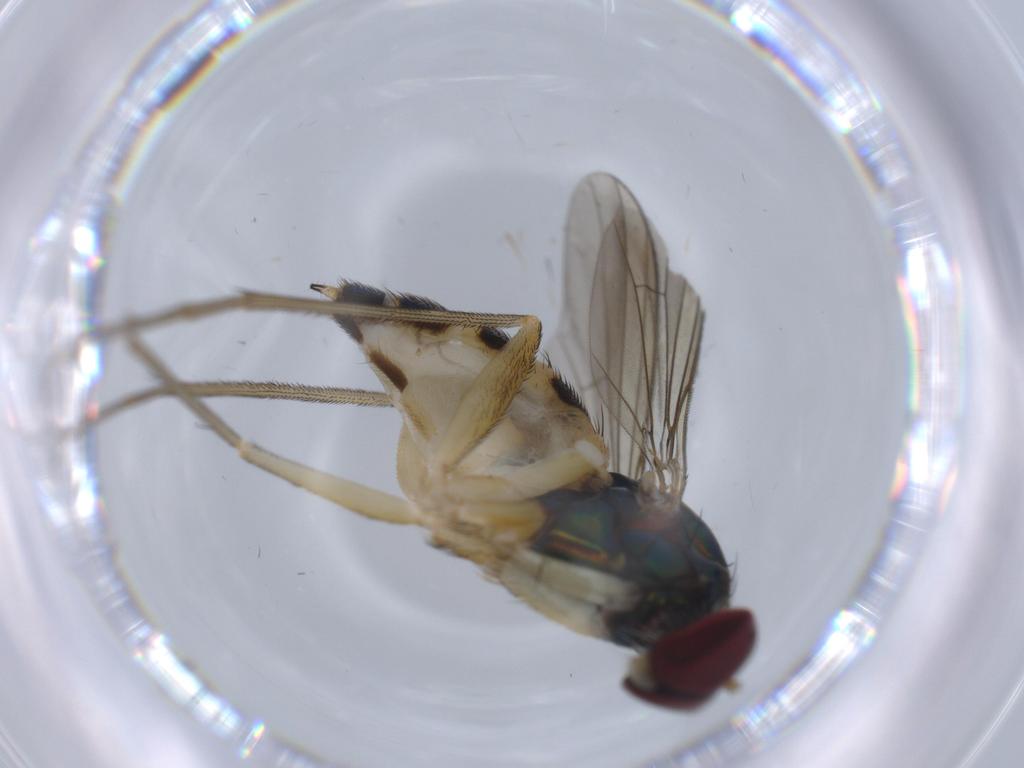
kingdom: Animalia
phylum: Arthropoda
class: Insecta
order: Diptera
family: Dolichopodidae
